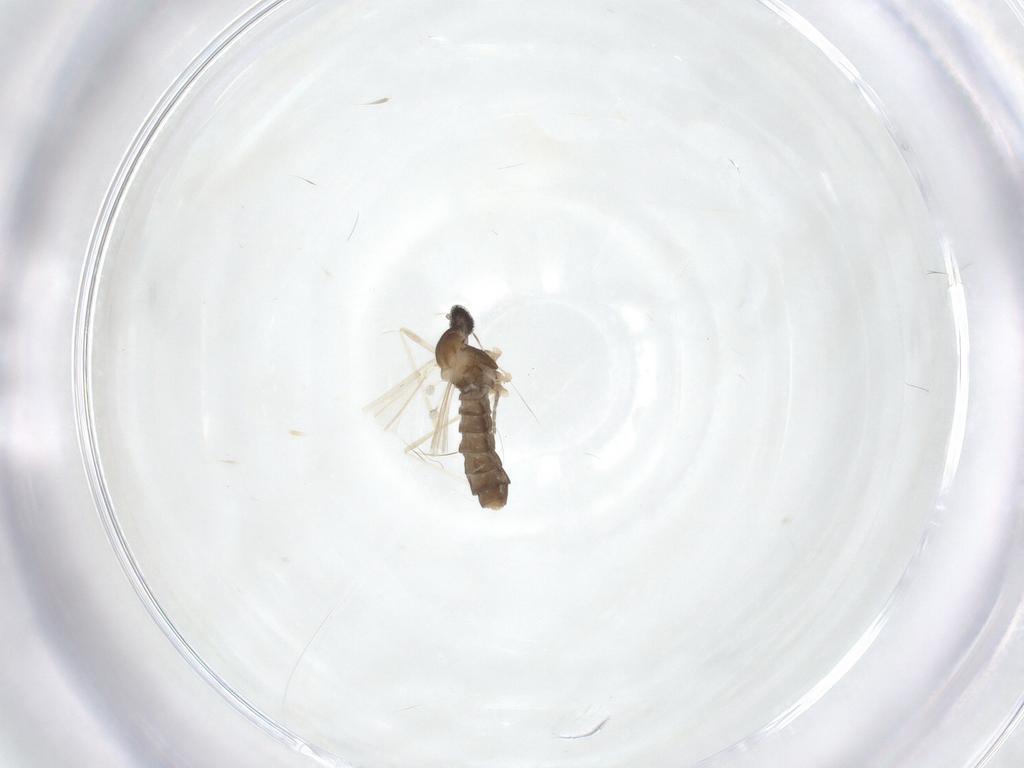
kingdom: Animalia
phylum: Arthropoda
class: Insecta
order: Diptera
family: Cecidomyiidae
